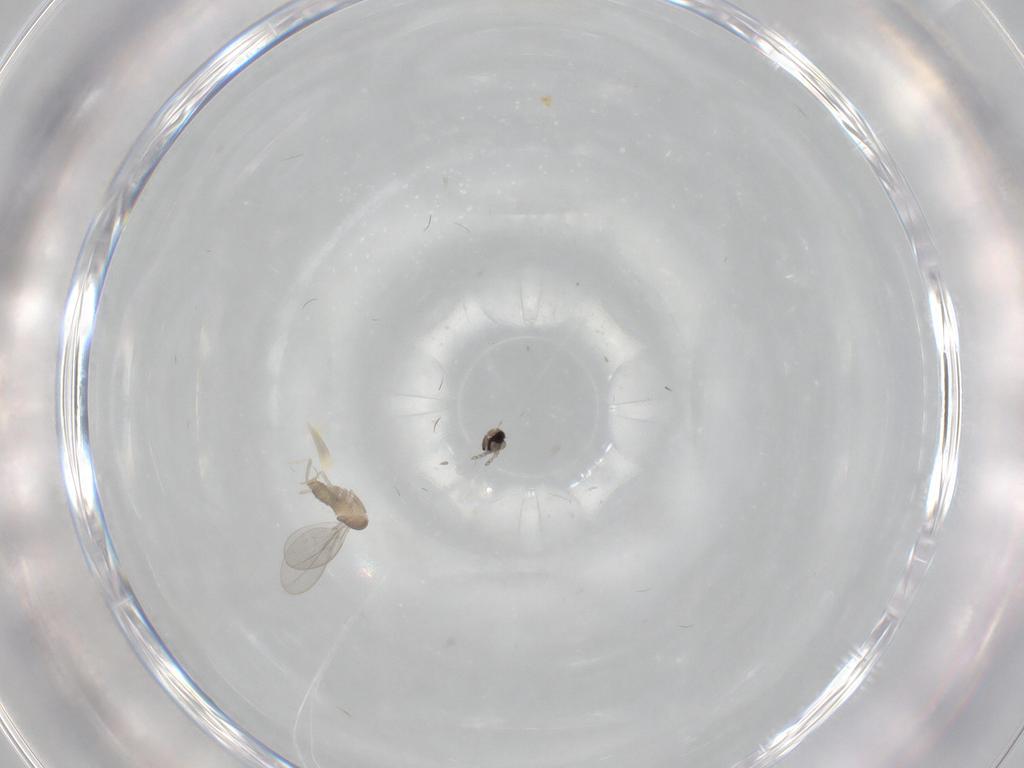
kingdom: Animalia
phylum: Arthropoda
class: Insecta
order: Diptera
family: Cecidomyiidae
